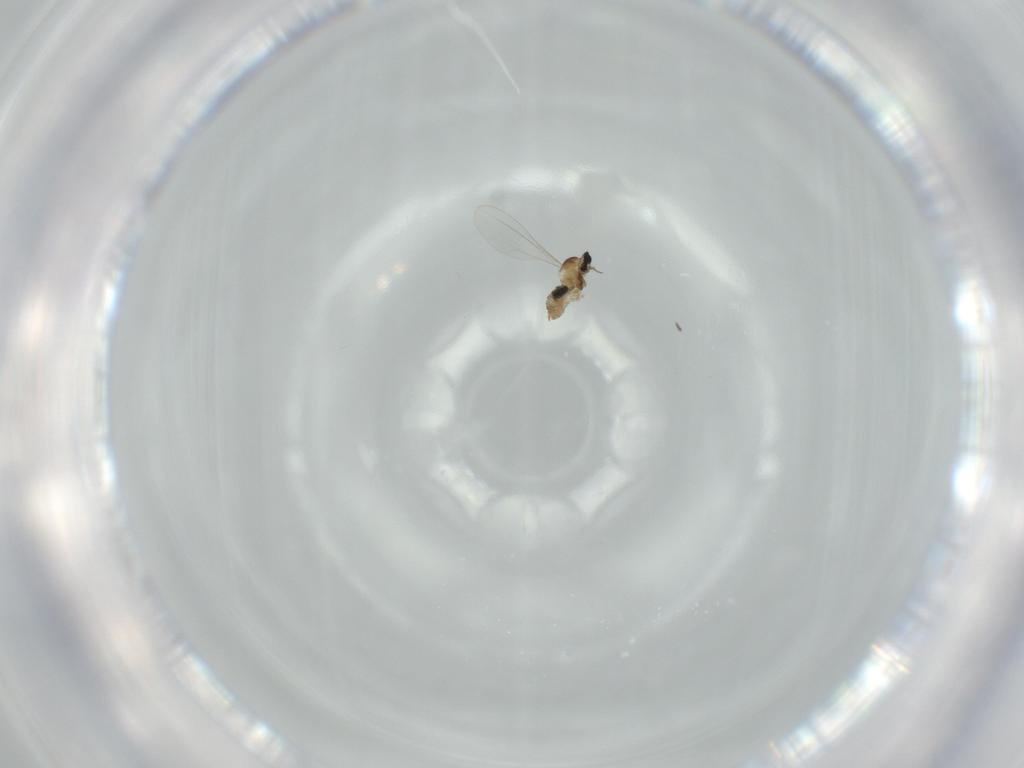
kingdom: Animalia
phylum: Arthropoda
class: Insecta
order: Diptera
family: Cecidomyiidae
